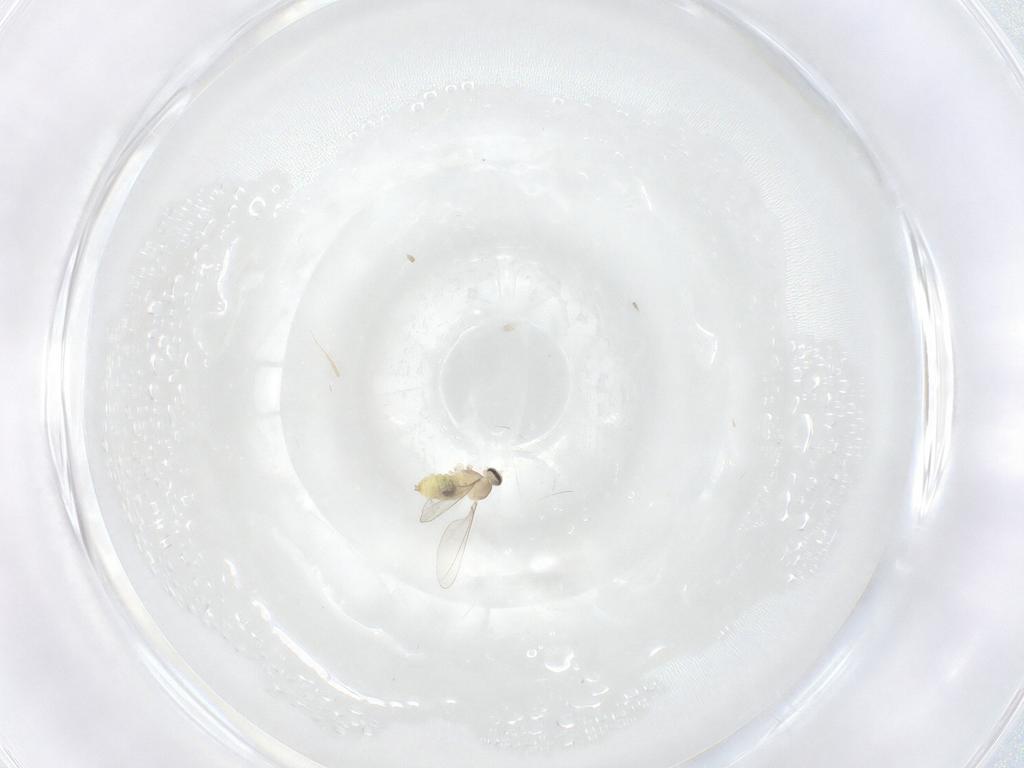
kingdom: Animalia
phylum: Arthropoda
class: Insecta
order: Diptera
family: Cecidomyiidae
